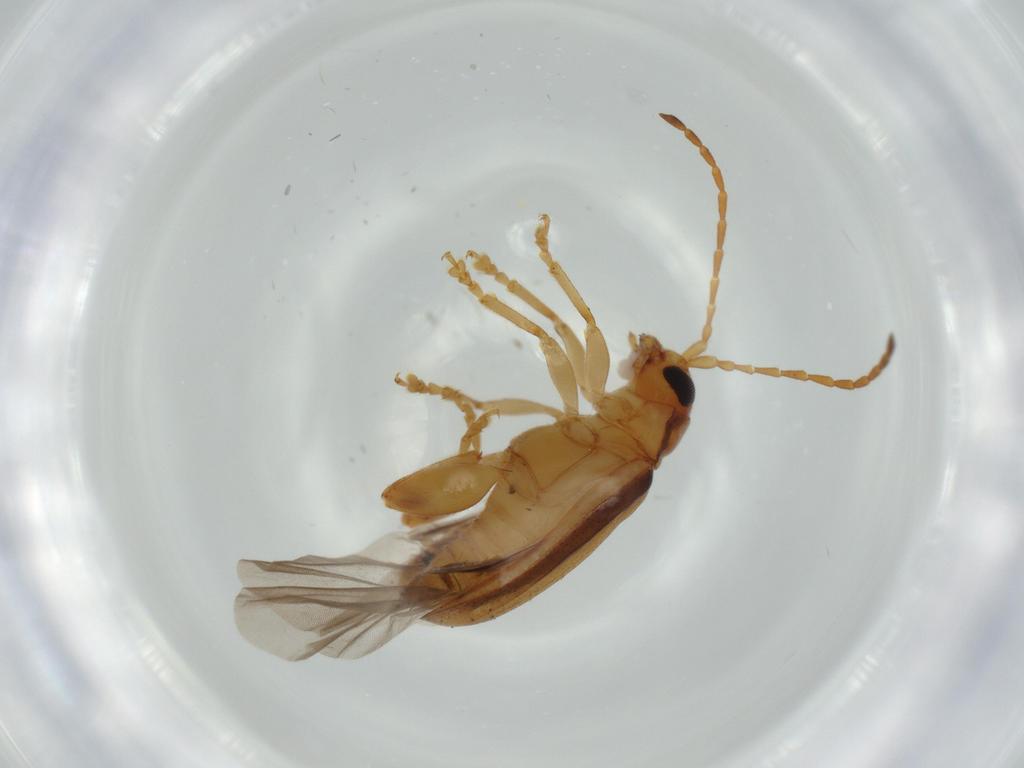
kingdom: Animalia
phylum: Arthropoda
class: Insecta
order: Coleoptera
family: Chrysomelidae
